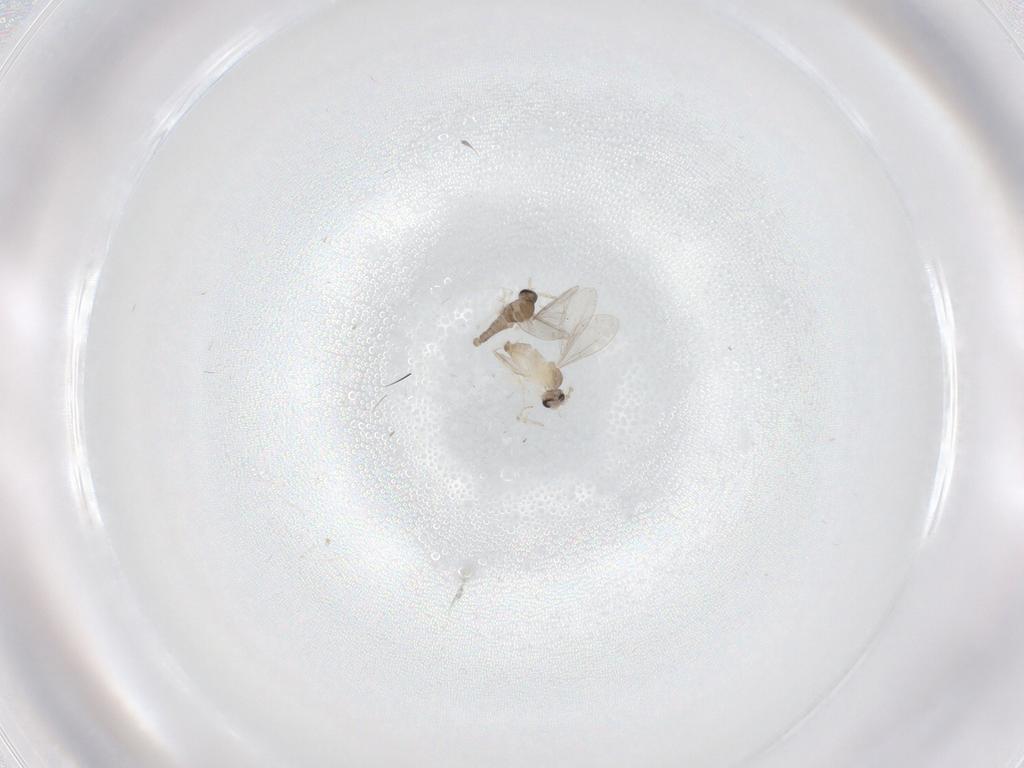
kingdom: Animalia
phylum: Arthropoda
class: Insecta
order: Diptera
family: Cecidomyiidae
